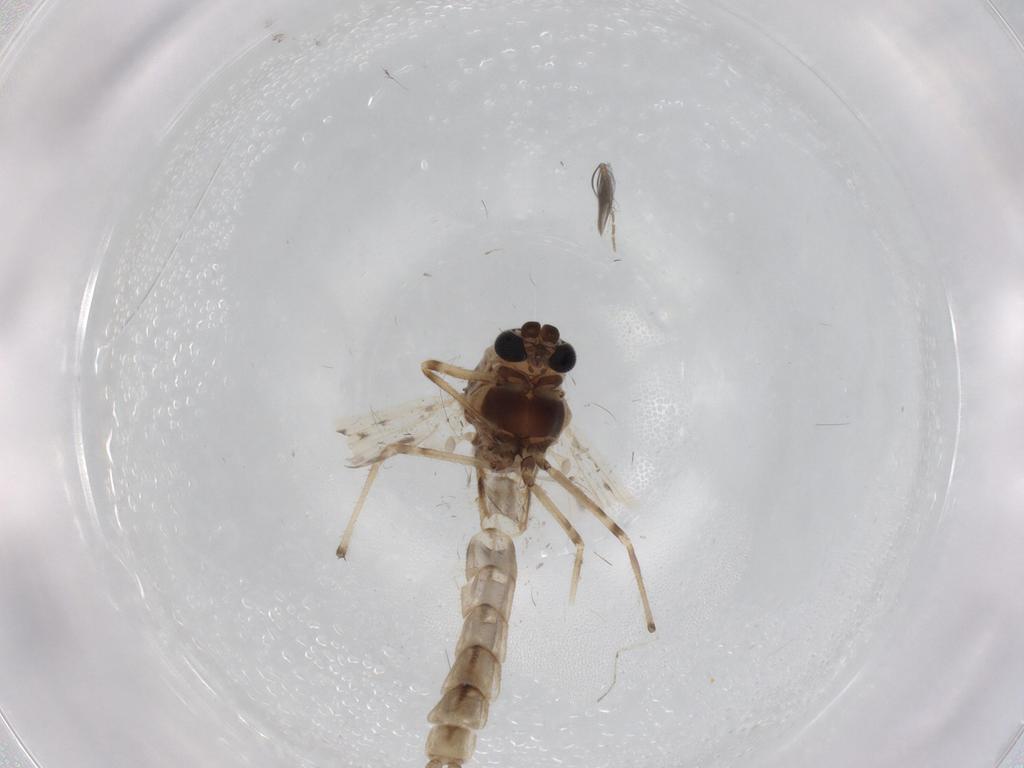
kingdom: Animalia
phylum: Arthropoda
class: Insecta
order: Diptera
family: Chironomidae
